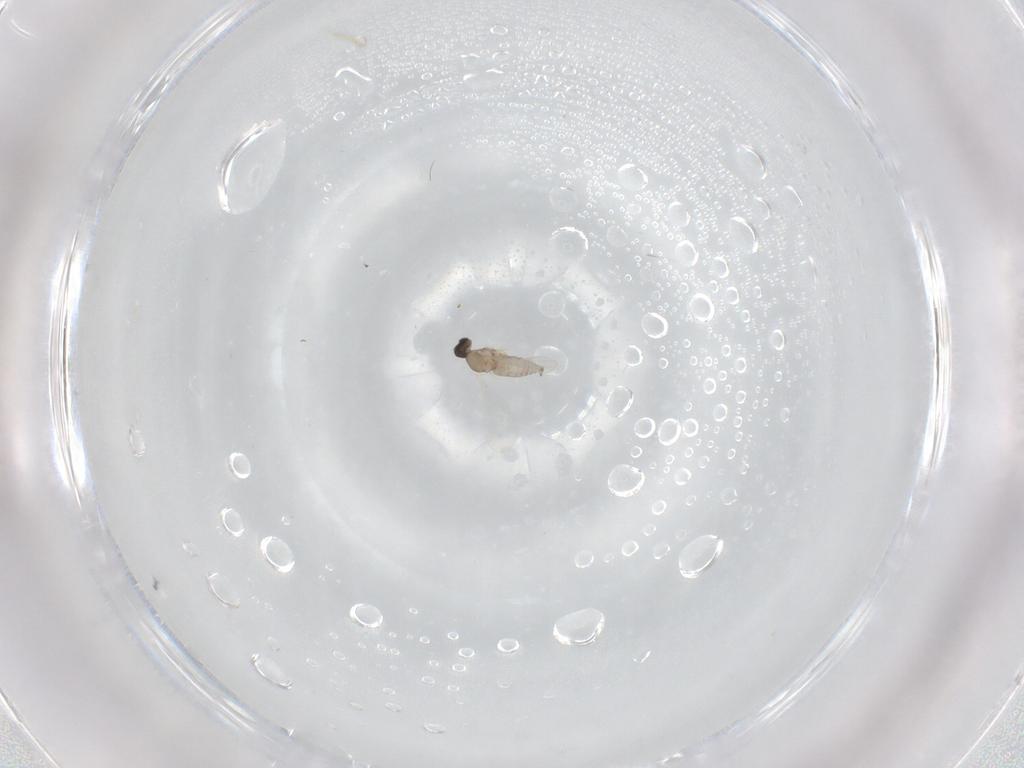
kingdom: Animalia
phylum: Arthropoda
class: Insecta
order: Diptera
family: Cecidomyiidae
